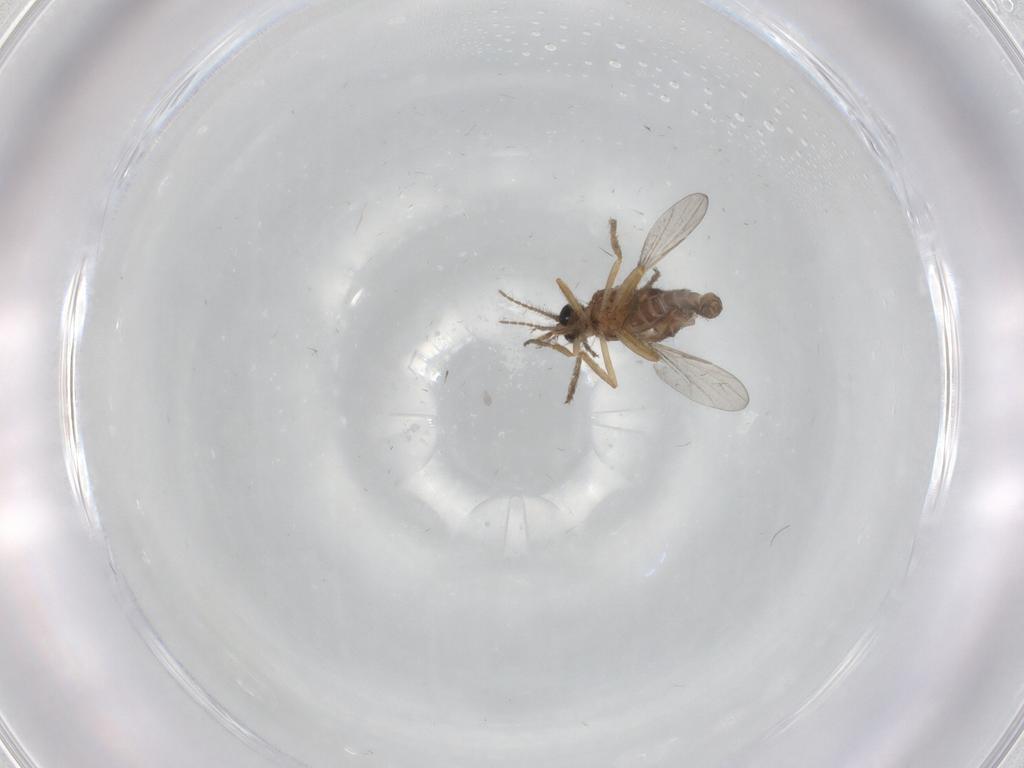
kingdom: Animalia
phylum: Arthropoda
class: Insecta
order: Diptera
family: Ceratopogonidae
